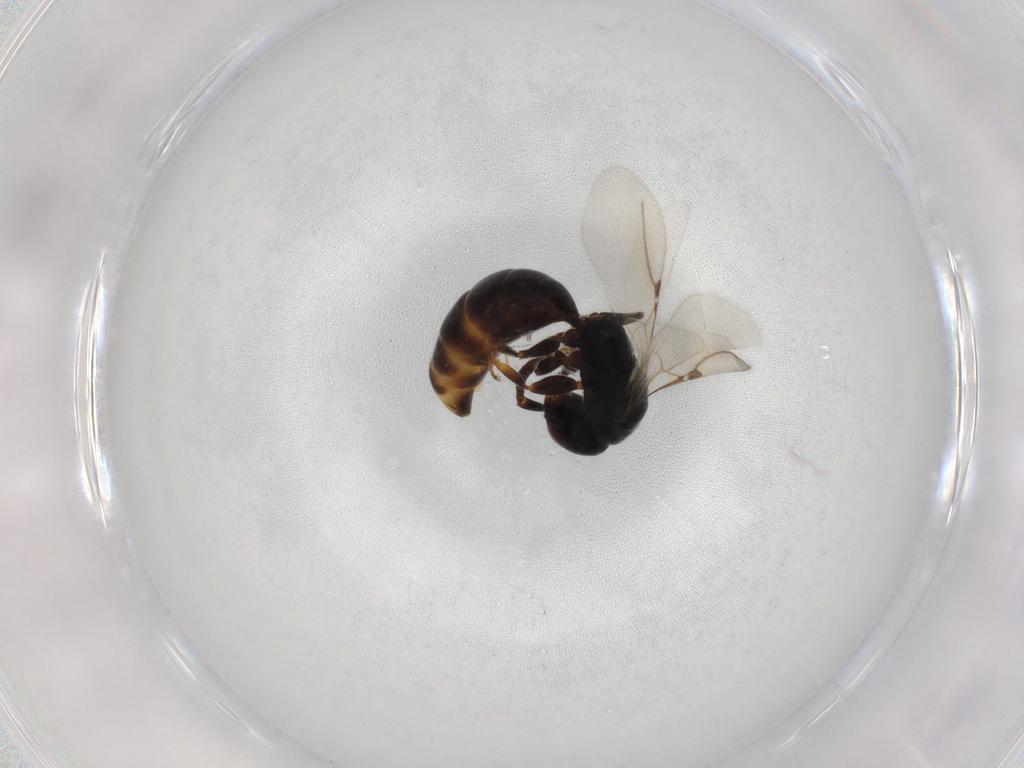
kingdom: Animalia
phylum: Arthropoda
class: Insecta
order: Hymenoptera
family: Bethylidae
